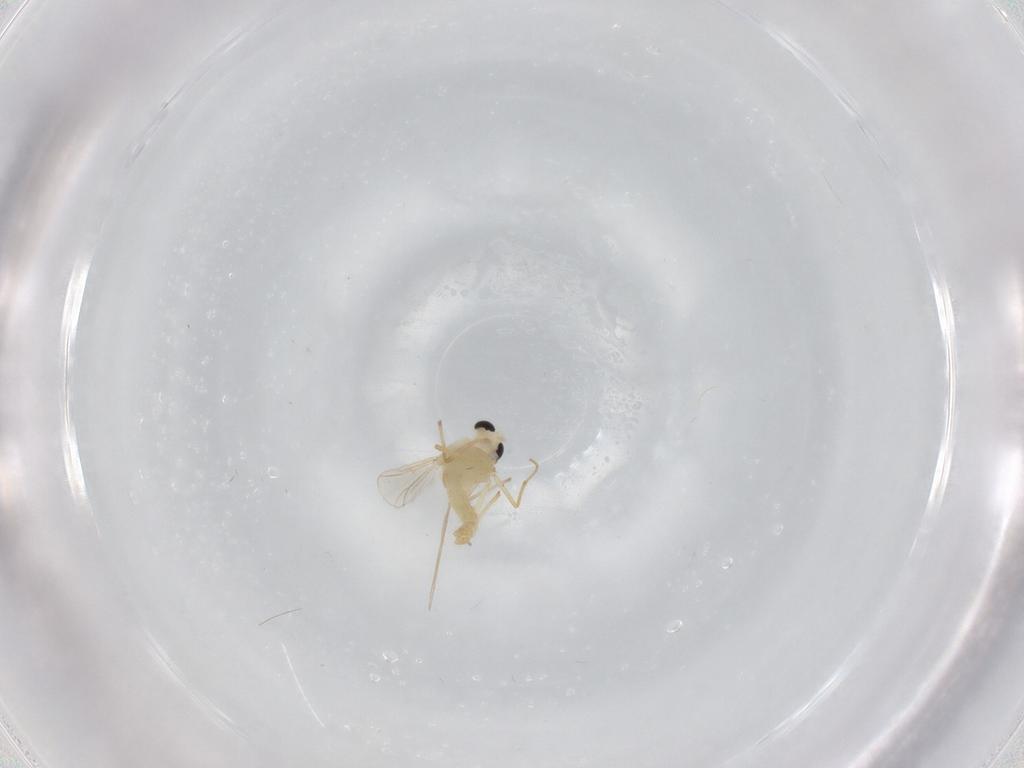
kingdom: Animalia
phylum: Arthropoda
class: Insecta
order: Diptera
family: Chironomidae
